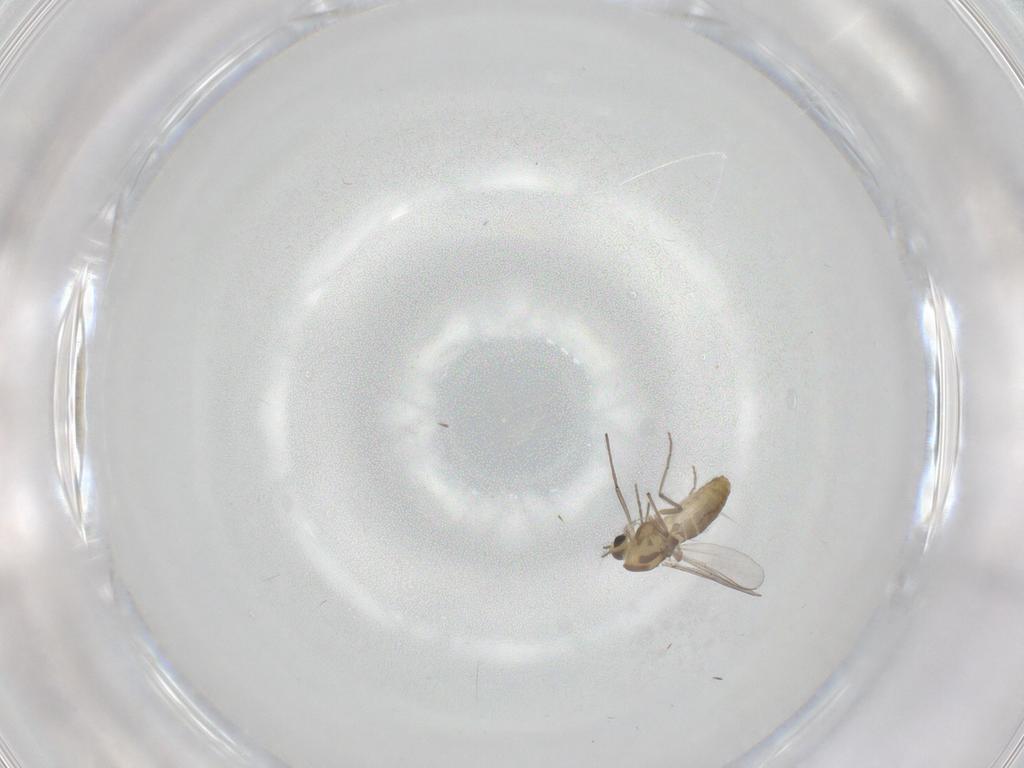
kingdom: Animalia
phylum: Arthropoda
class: Insecta
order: Diptera
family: Chironomidae
